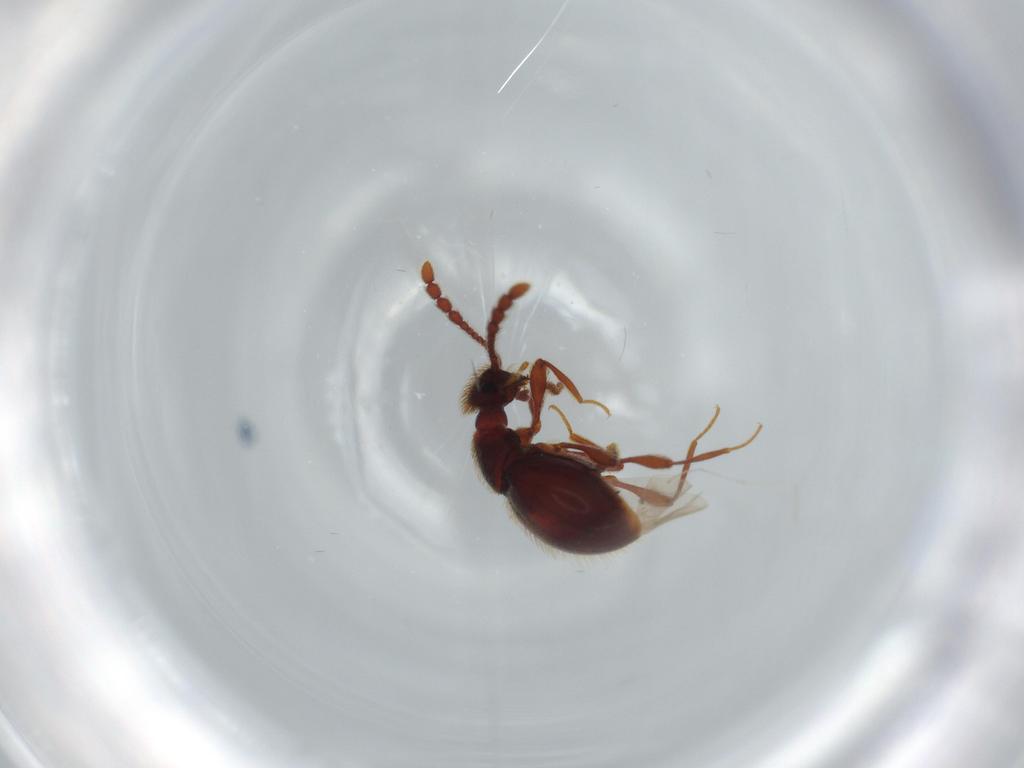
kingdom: Animalia
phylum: Arthropoda
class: Insecta
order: Coleoptera
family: Staphylinidae
